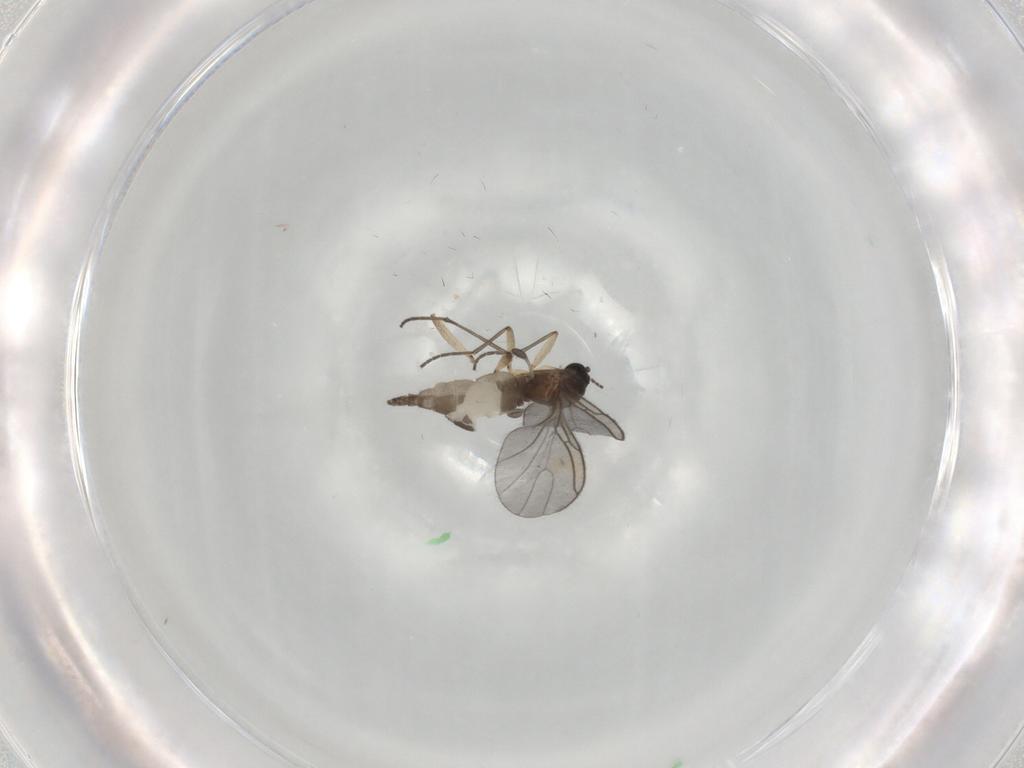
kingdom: Animalia
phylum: Arthropoda
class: Insecta
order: Diptera
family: Sciaridae
